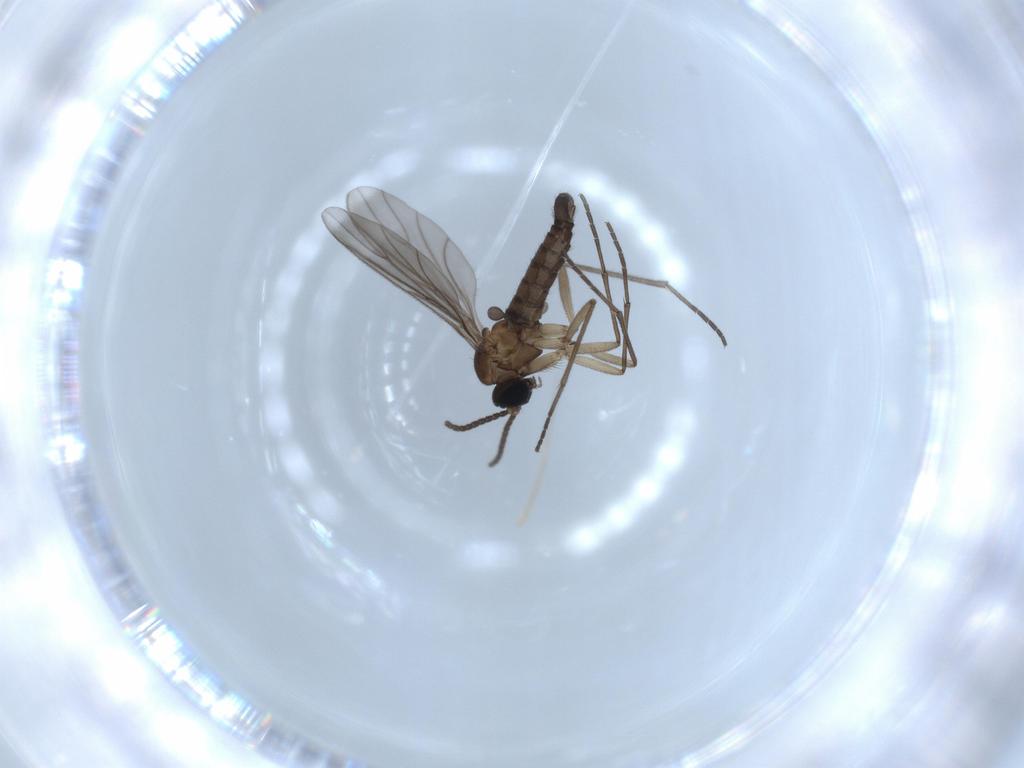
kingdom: Animalia
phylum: Arthropoda
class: Insecta
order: Diptera
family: Sciaridae
